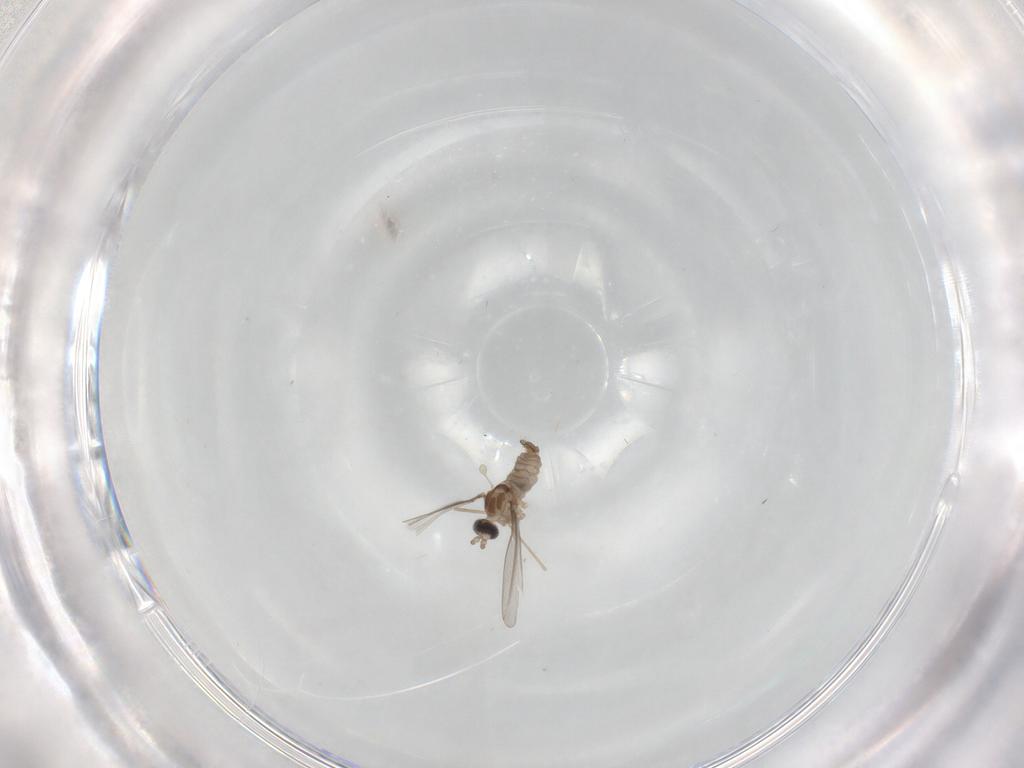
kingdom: Animalia
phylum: Arthropoda
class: Insecta
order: Diptera
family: Cecidomyiidae
